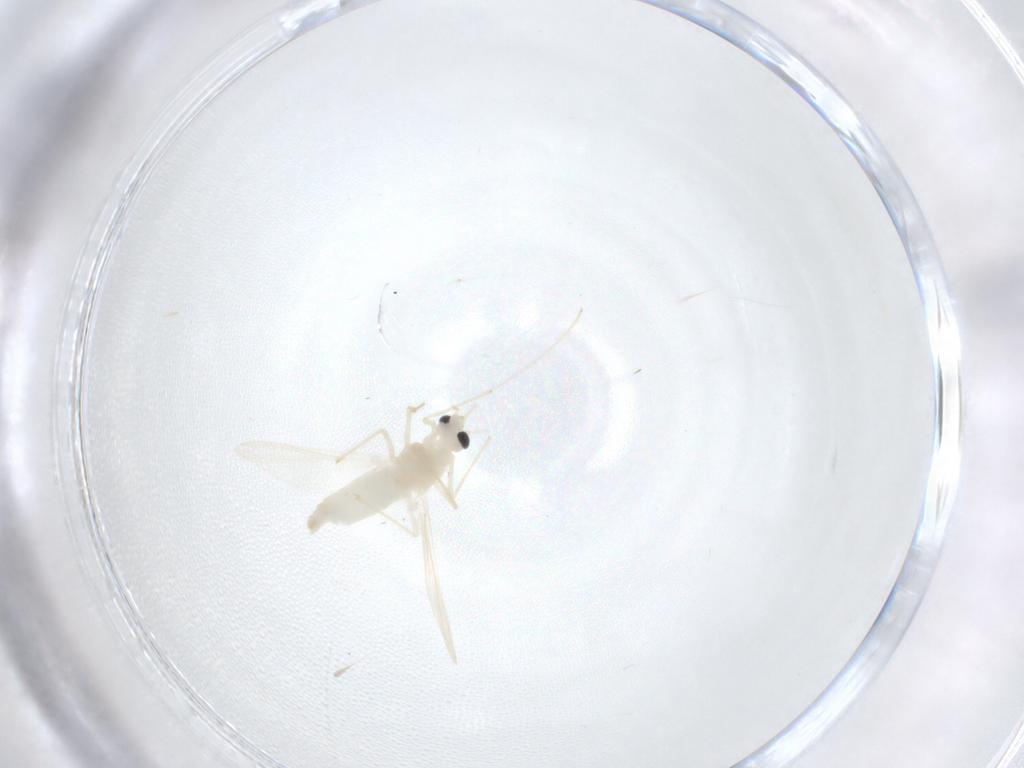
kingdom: Animalia
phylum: Arthropoda
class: Insecta
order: Diptera
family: Chironomidae
